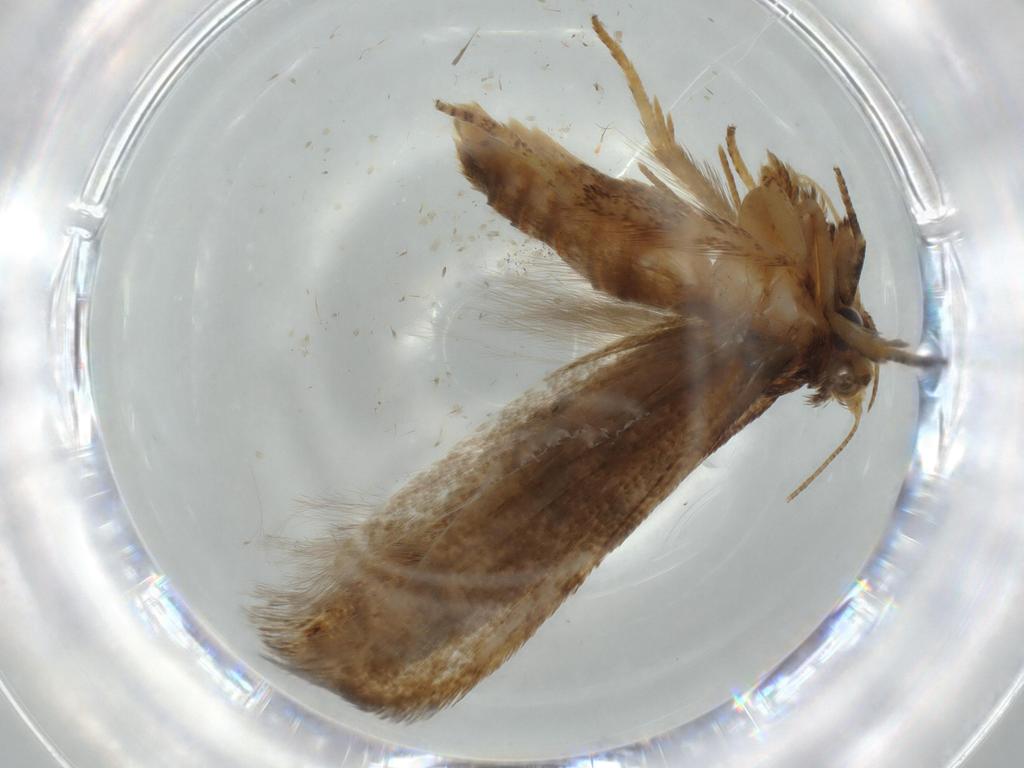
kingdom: Animalia
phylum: Arthropoda
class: Insecta
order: Lepidoptera
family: Coleophoridae
